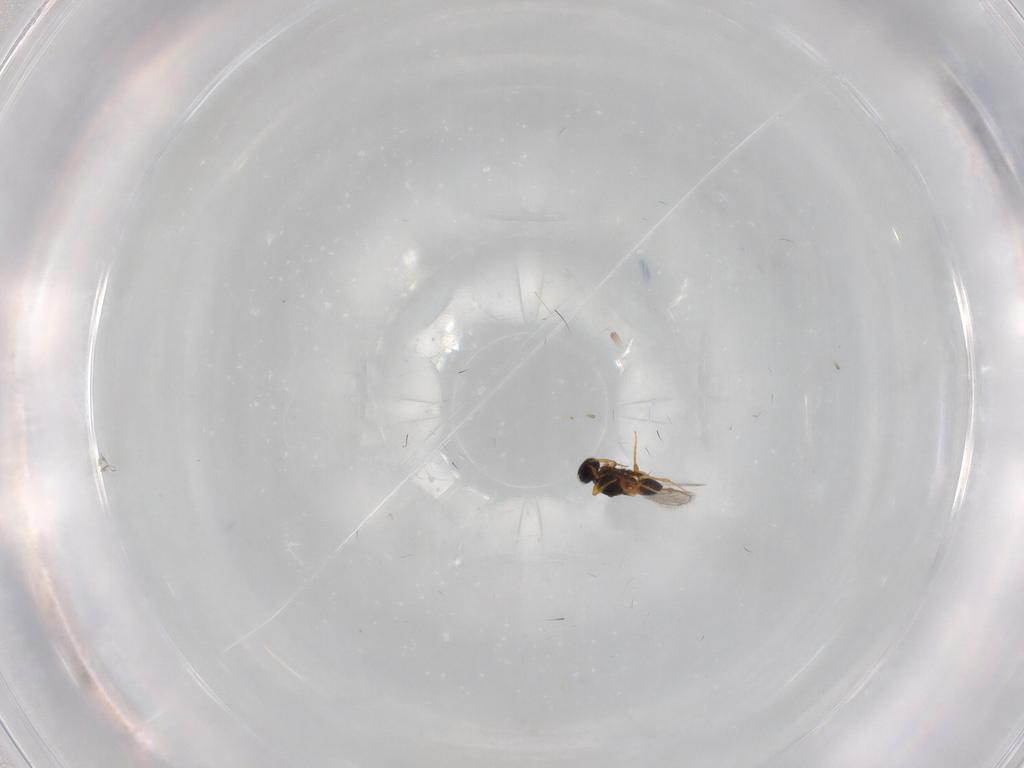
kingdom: Animalia
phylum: Arthropoda
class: Insecta
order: Hymenoptera
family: Platygastridae
